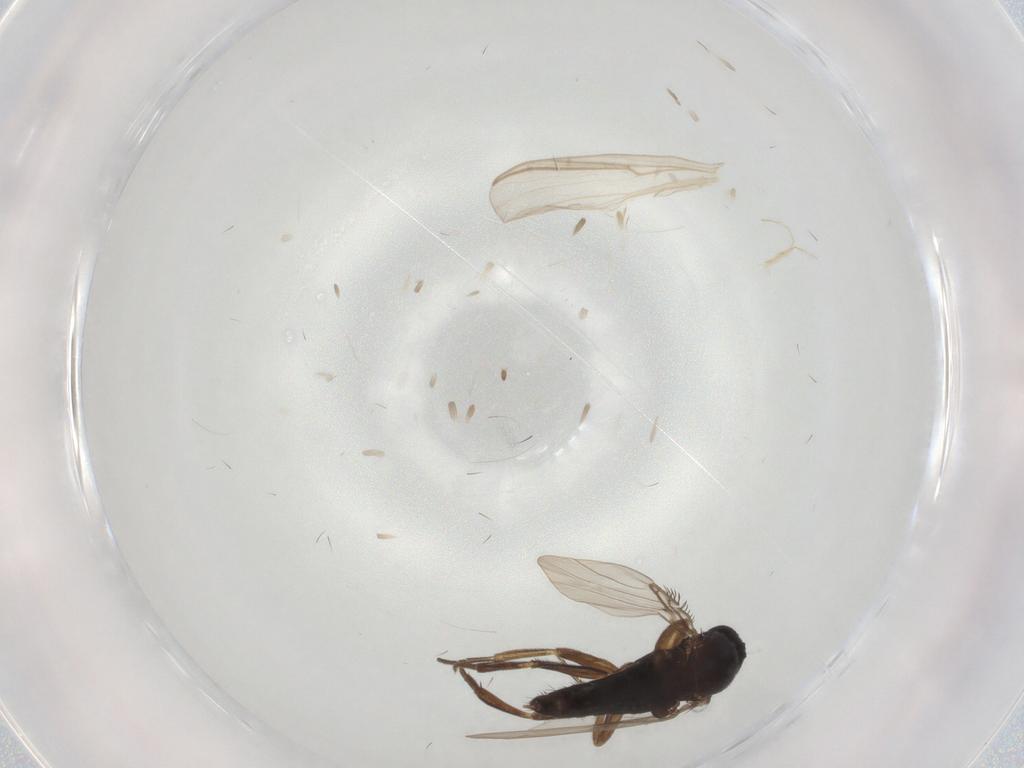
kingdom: Animalia
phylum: Arthropoda
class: Insecta
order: Diptera
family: Phoridae
